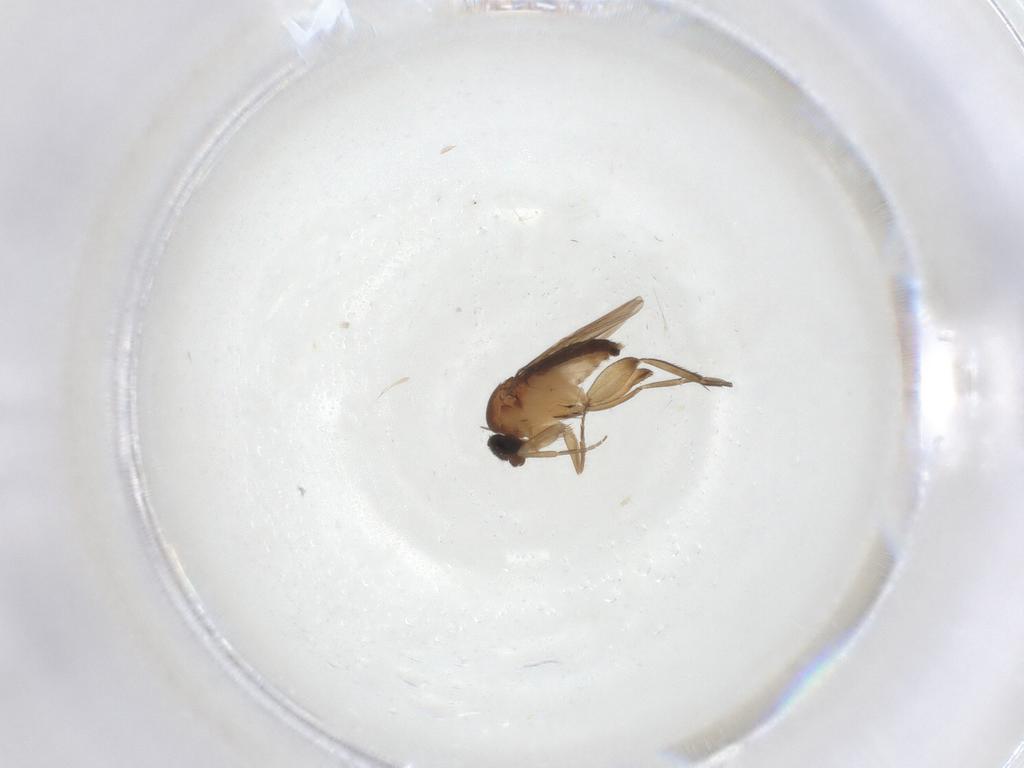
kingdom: Animalia
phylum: Arthropoda
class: Insecta
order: Diptera
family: Phoridae
